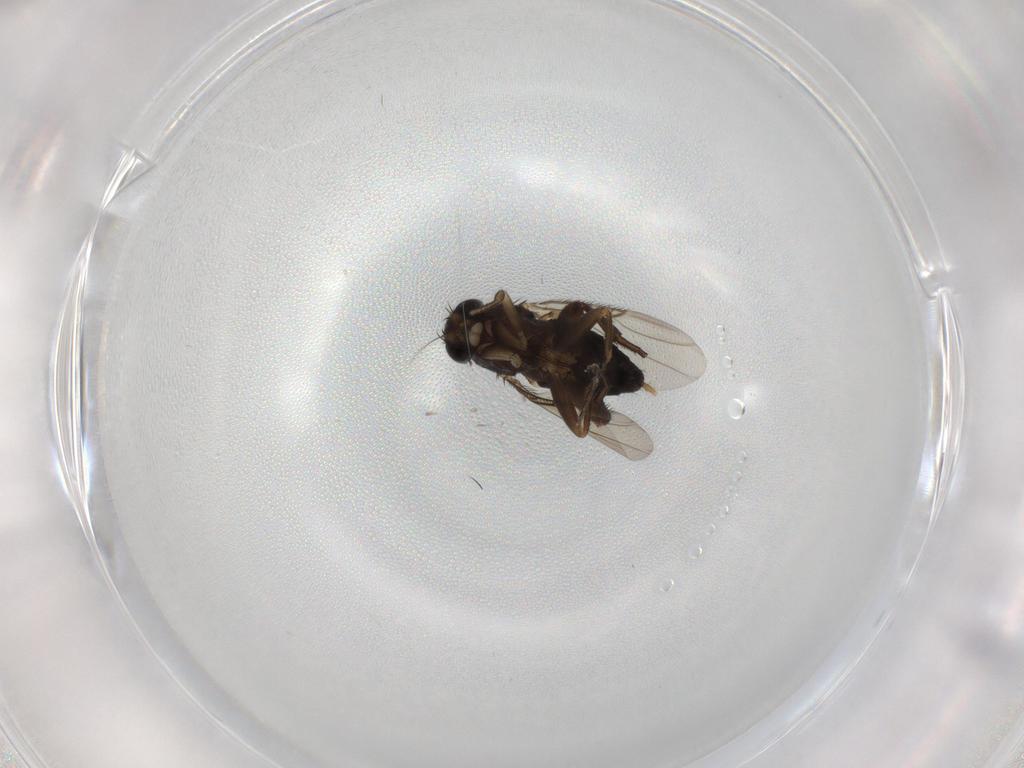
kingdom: Animalia
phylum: Arthropoda
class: Insecta
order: Diptera
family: Phoridae
